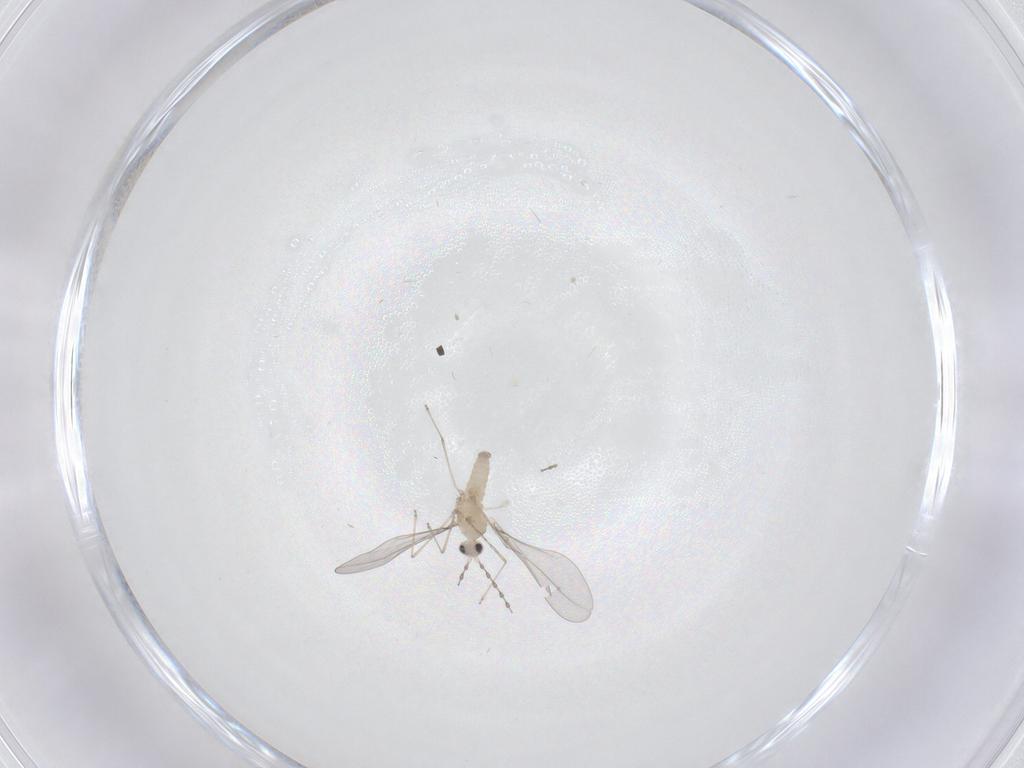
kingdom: Animalia
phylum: Arthropoda
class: Insecta
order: Diptera
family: Cecidomyiidae
